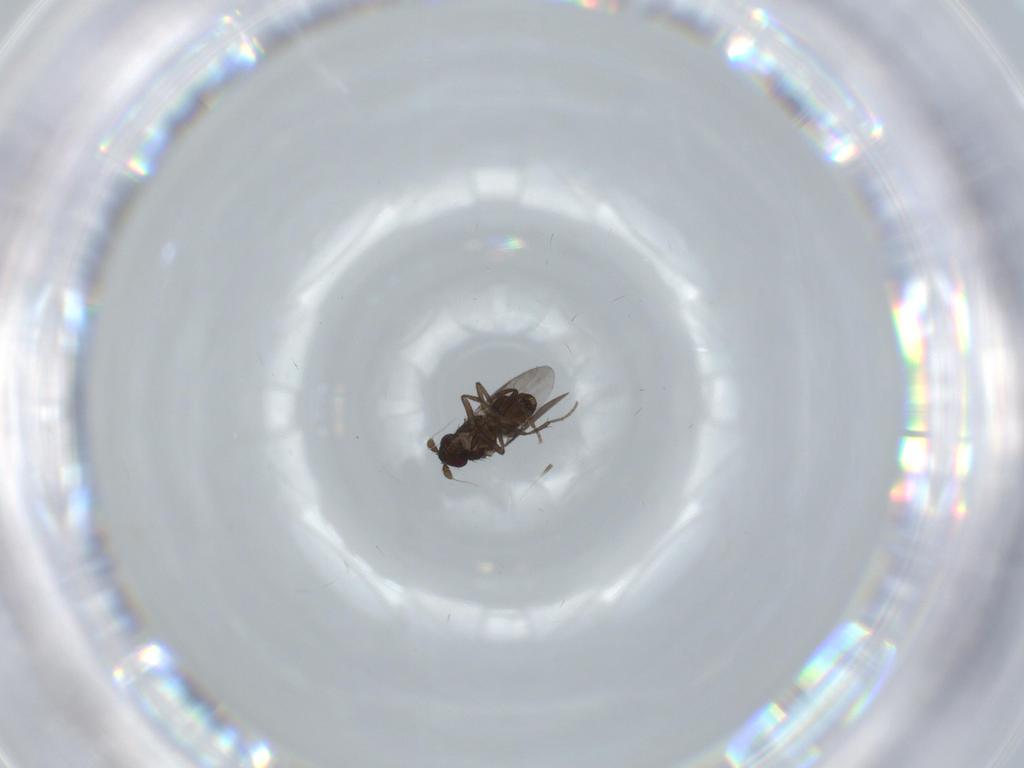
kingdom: Animalia
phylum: Arthropoda
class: Insecta
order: Diptera
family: Sphaeroceridae
